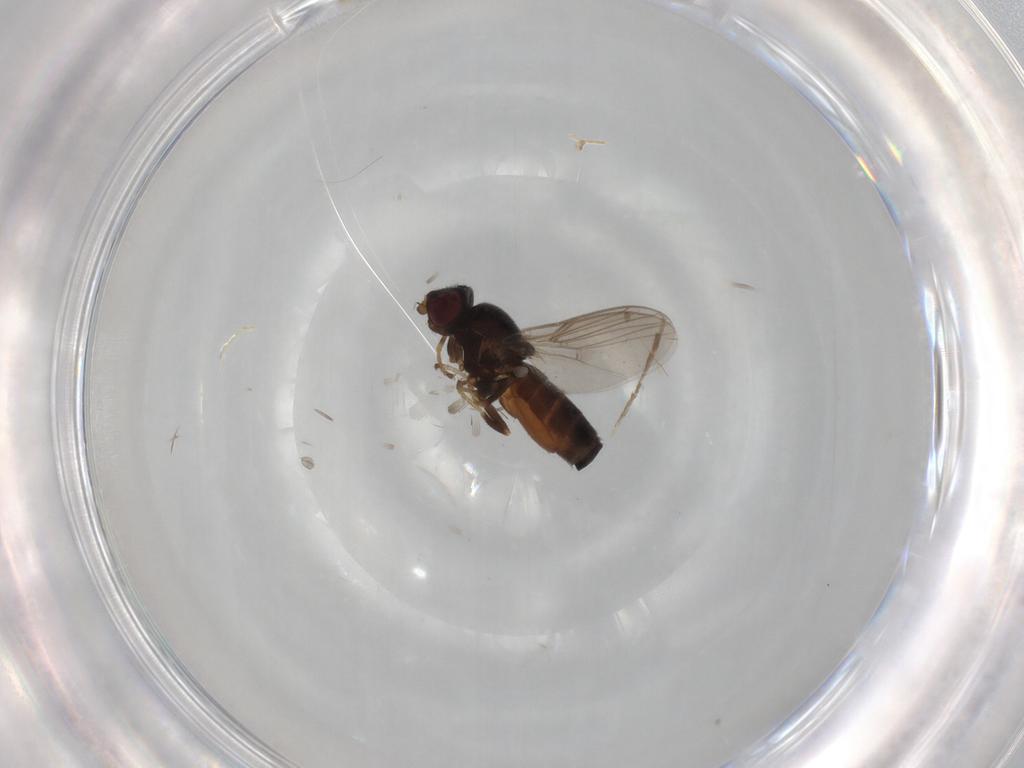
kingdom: Animalia
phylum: Arthropoda
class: Insecta
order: Diptera
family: Chloropidae
